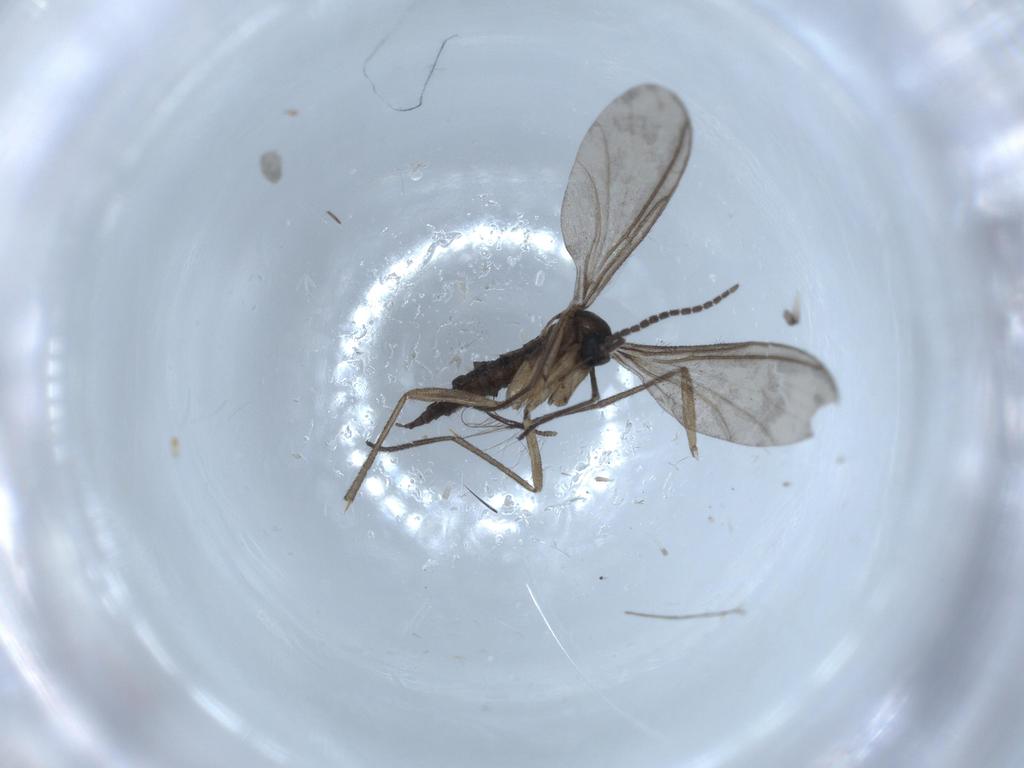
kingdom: Animalia
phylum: Arthropoda
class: Insecta
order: Diptera
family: Sciaridae
